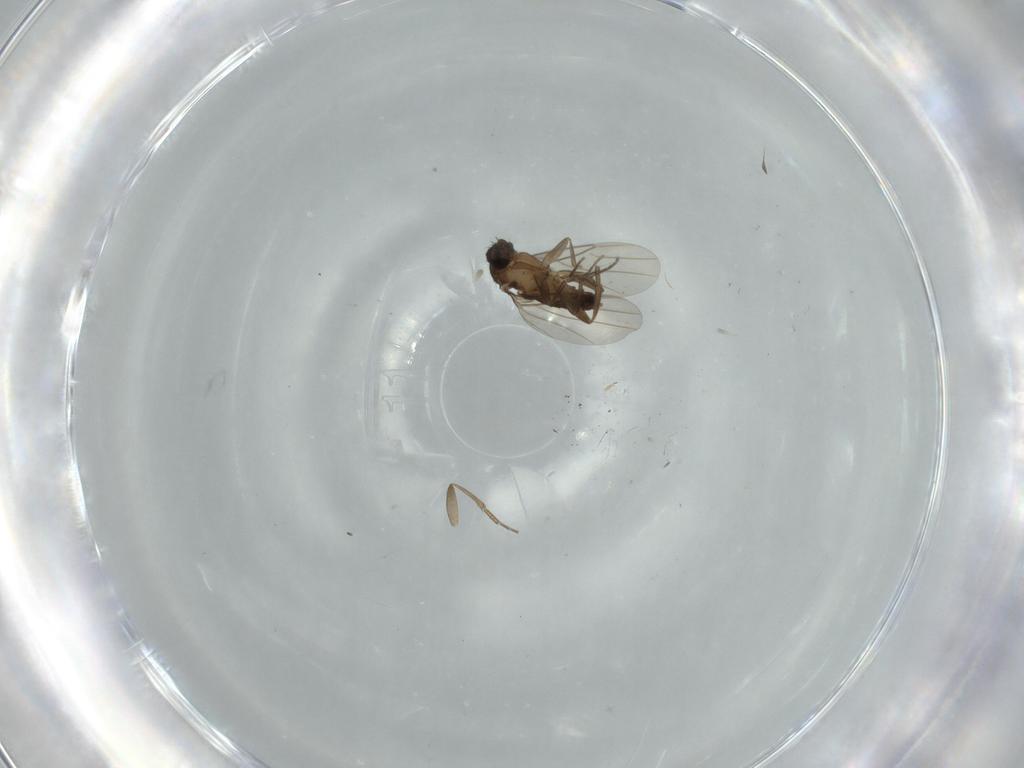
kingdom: Animalia
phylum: Arthropoda
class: Insecta
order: Diptera
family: Phoridae
